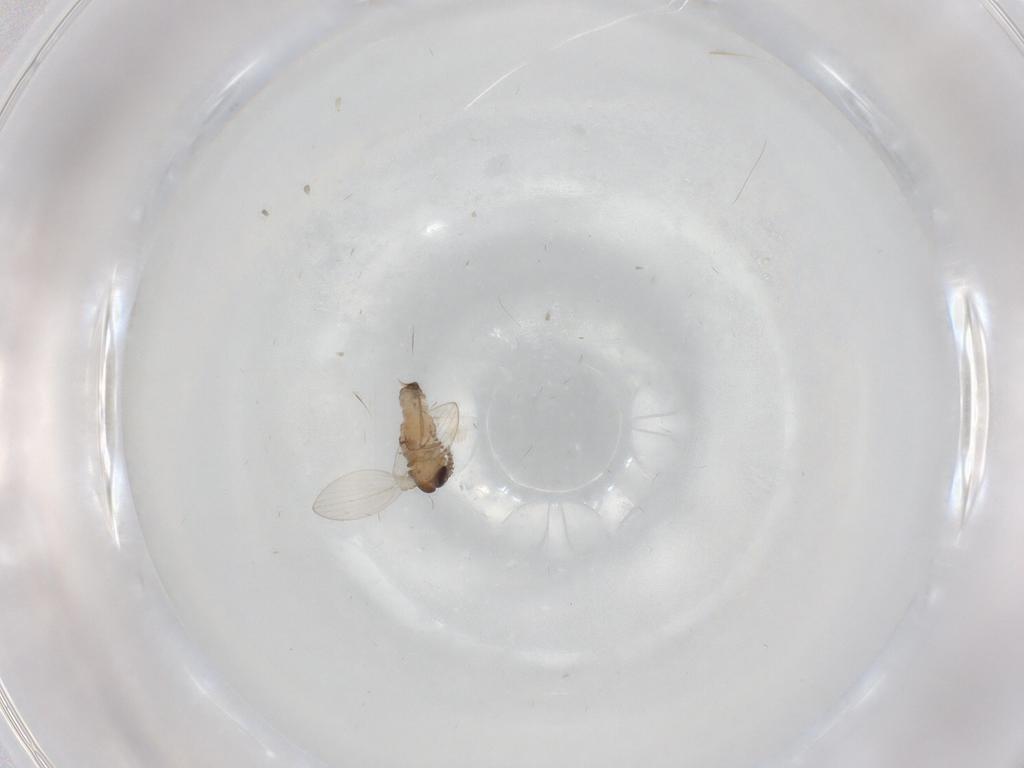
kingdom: Animalia
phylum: Arthropoda
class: Insecta
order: Diptera
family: Psychodidae
